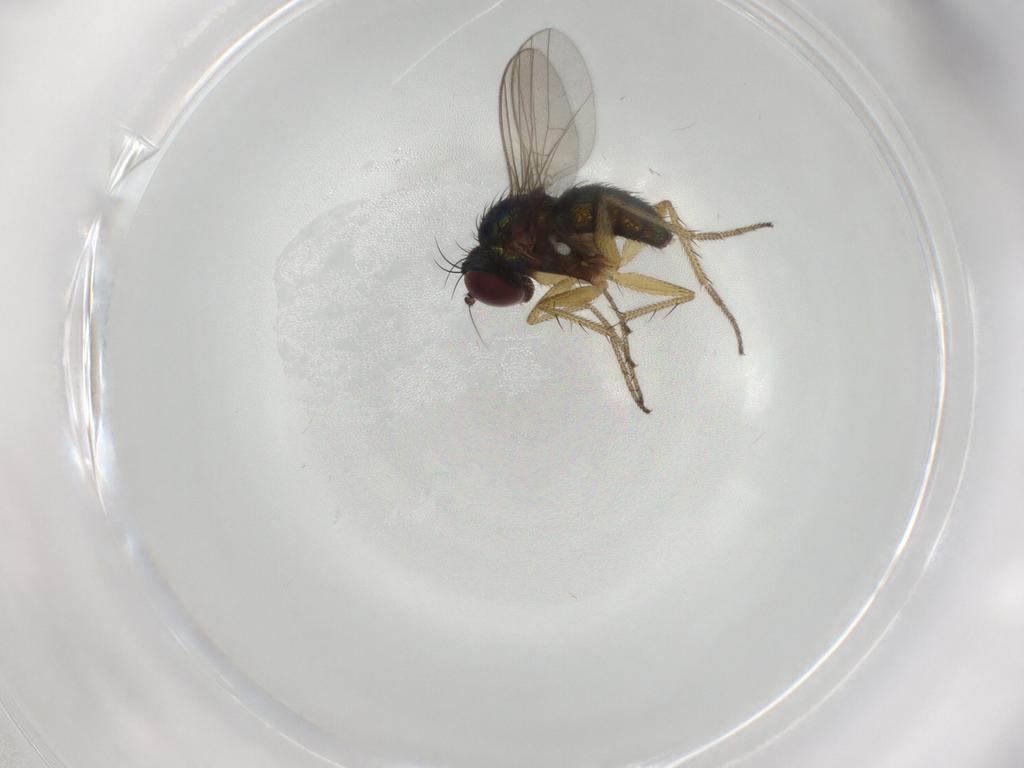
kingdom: Animalia
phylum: Arthropoda
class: Insecta
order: Diptera
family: Dolichopodidae
